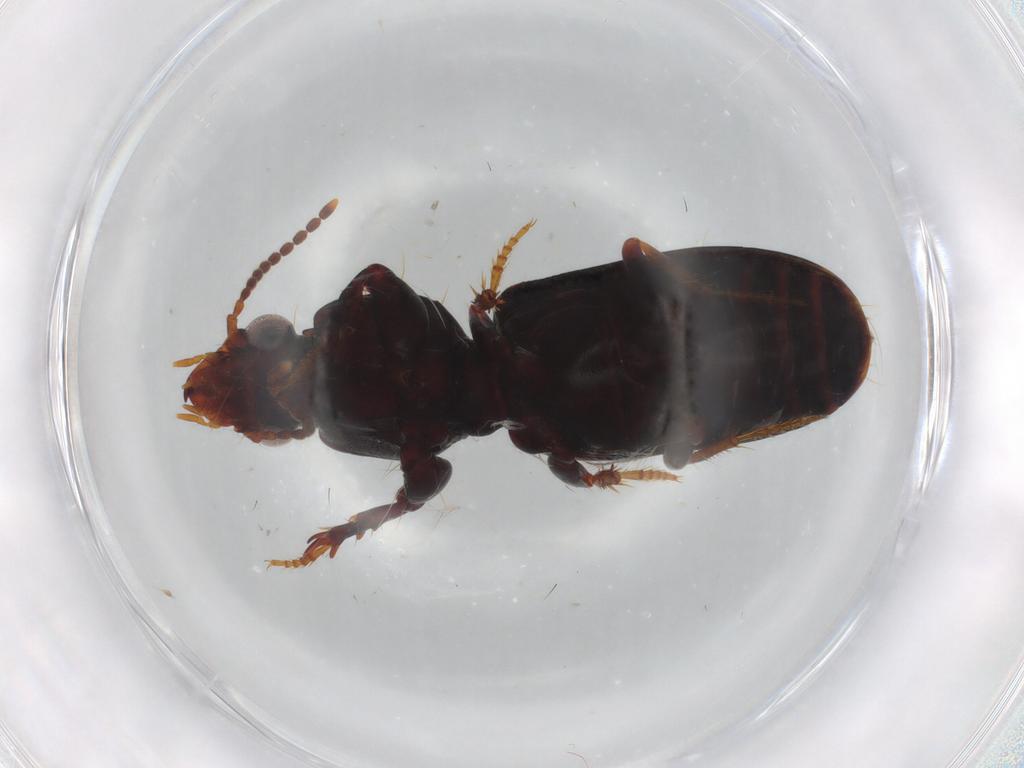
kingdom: Animalia
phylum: Arthropoda
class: Insecta
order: Coleoptera
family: Carabidae
